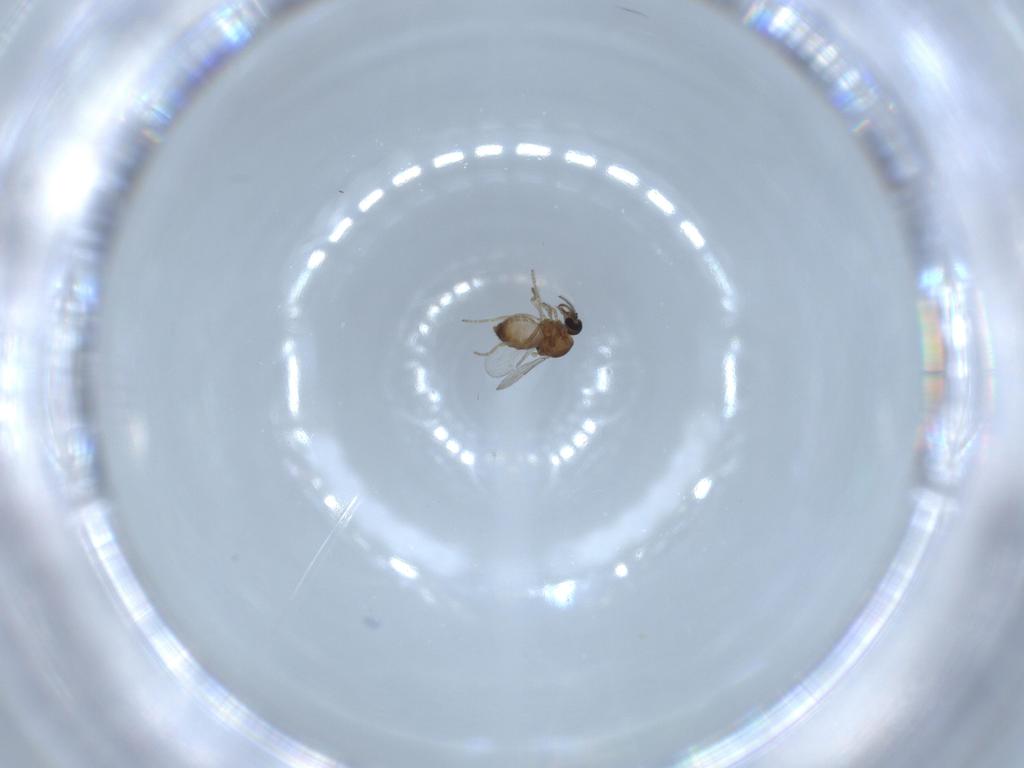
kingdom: Animalia
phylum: Arthropoda
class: Insecta
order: Diptera
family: Ceratopogonidae
